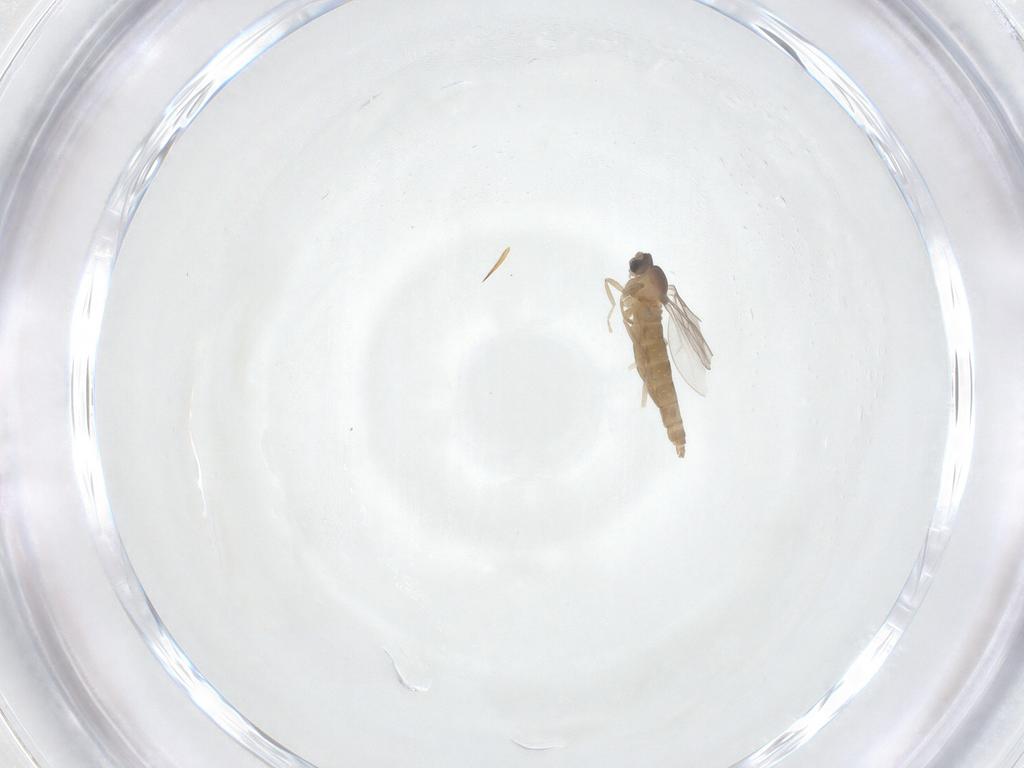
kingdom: Animalia
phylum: Arthropoda
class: Insecta
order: Diptera
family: Cecidomyiidae
